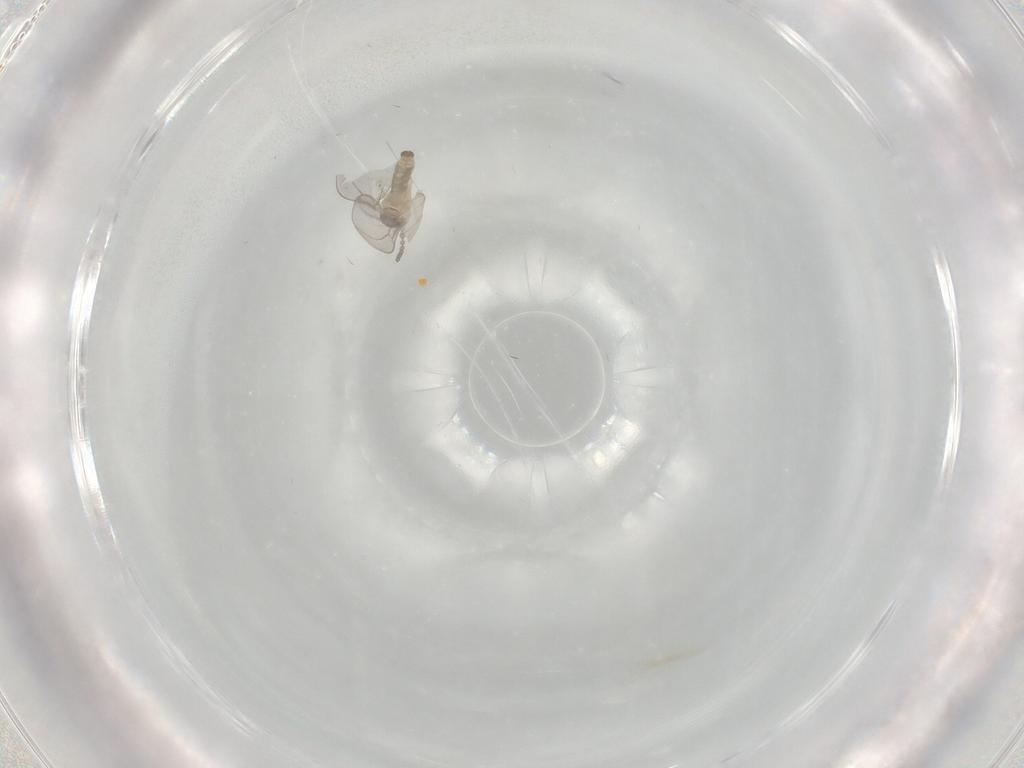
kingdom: Animalia
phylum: Arthropoda
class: Insecta
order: Diptera
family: Cecidomyiidae
